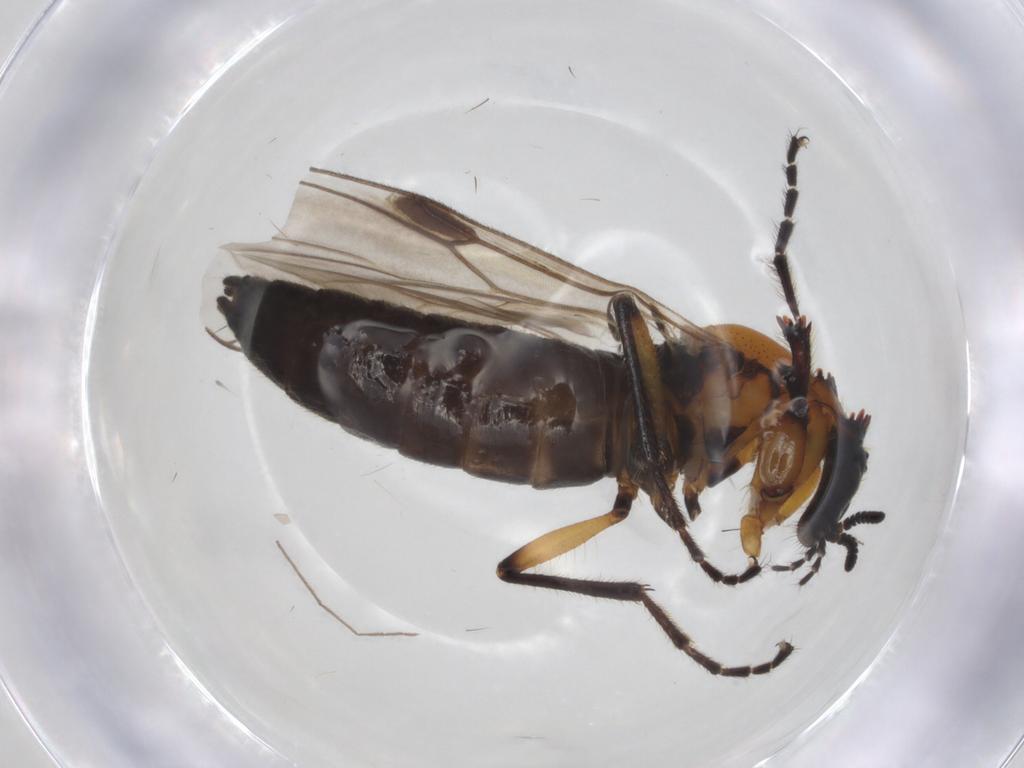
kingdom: Animalia
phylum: Arthropoda
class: Insecta
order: Diptera
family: Bibionidae
